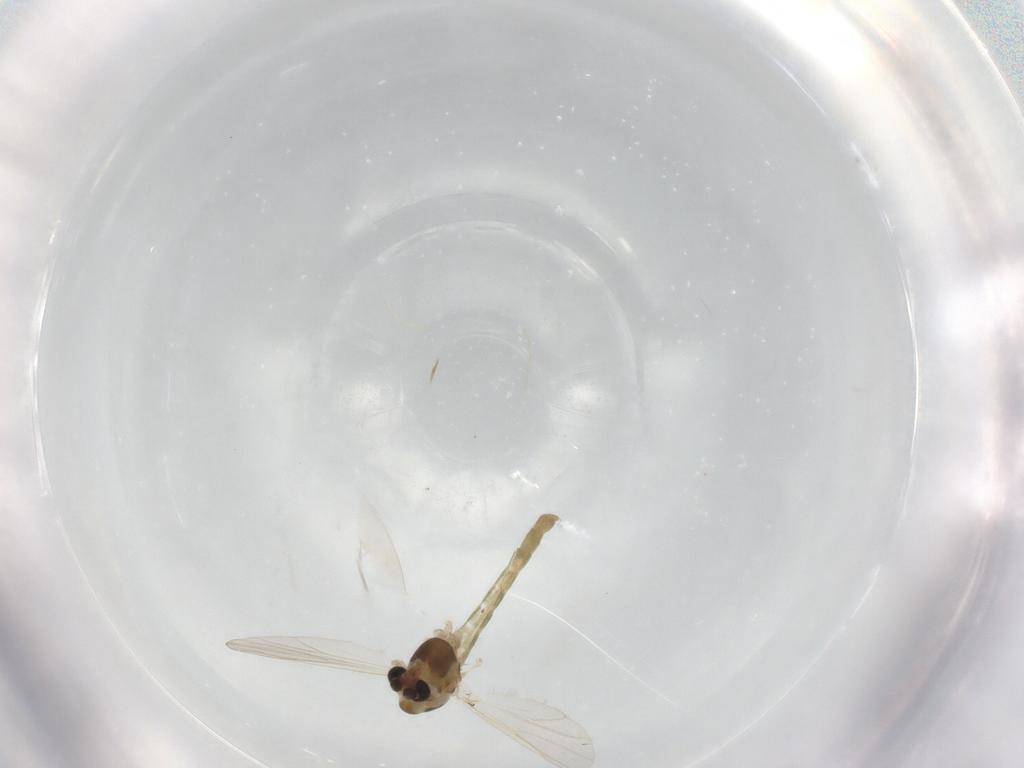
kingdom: Animalia
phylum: Arthropoda
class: Insecta
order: Diptera
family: Chironomidae
